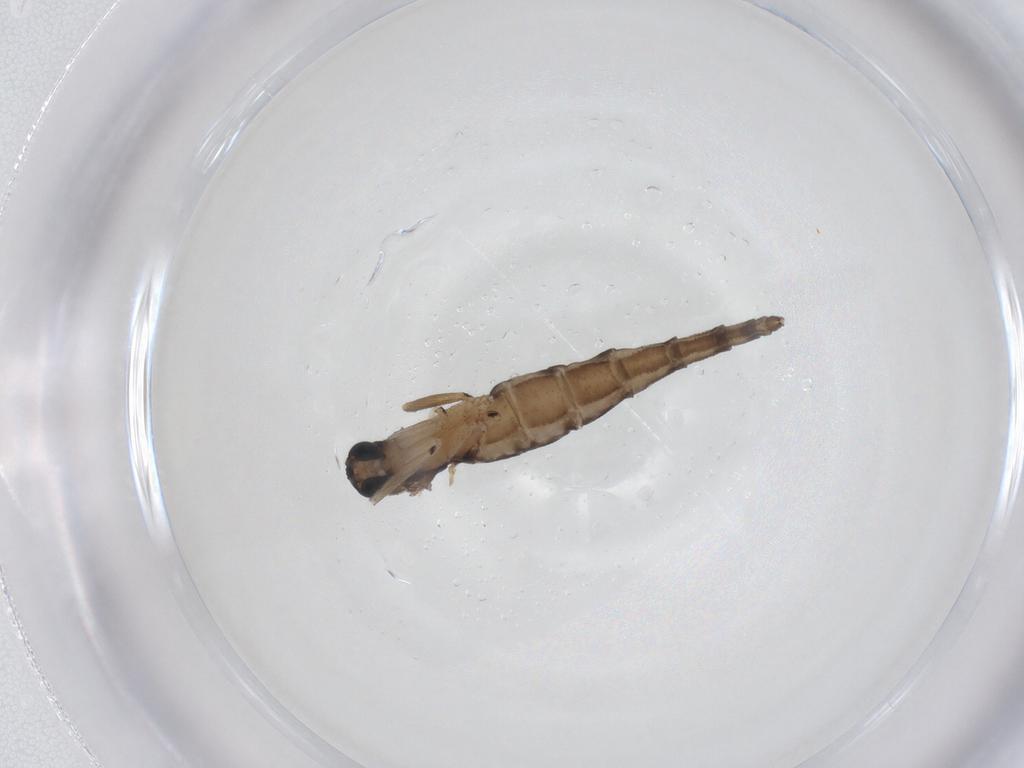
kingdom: Animalia
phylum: Arthropoda
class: Insecta
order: Diptera
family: Sciaridae
